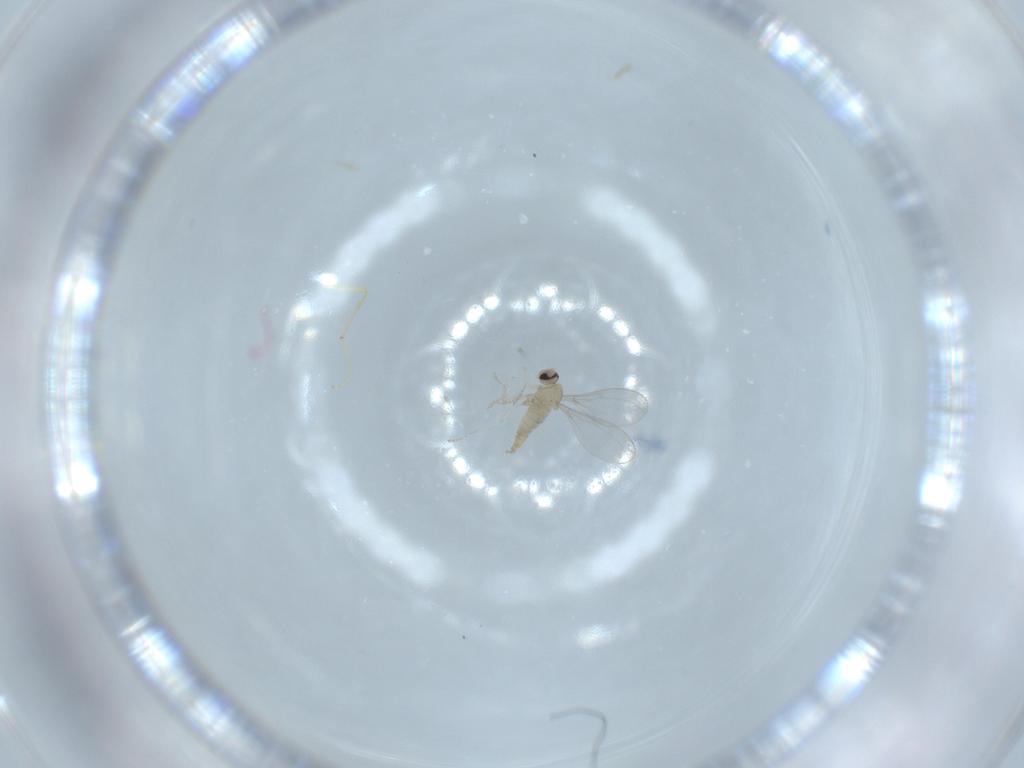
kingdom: Animalia
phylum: Arthropoda
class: Insecta
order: Diptera
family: Cecidomyiidae
